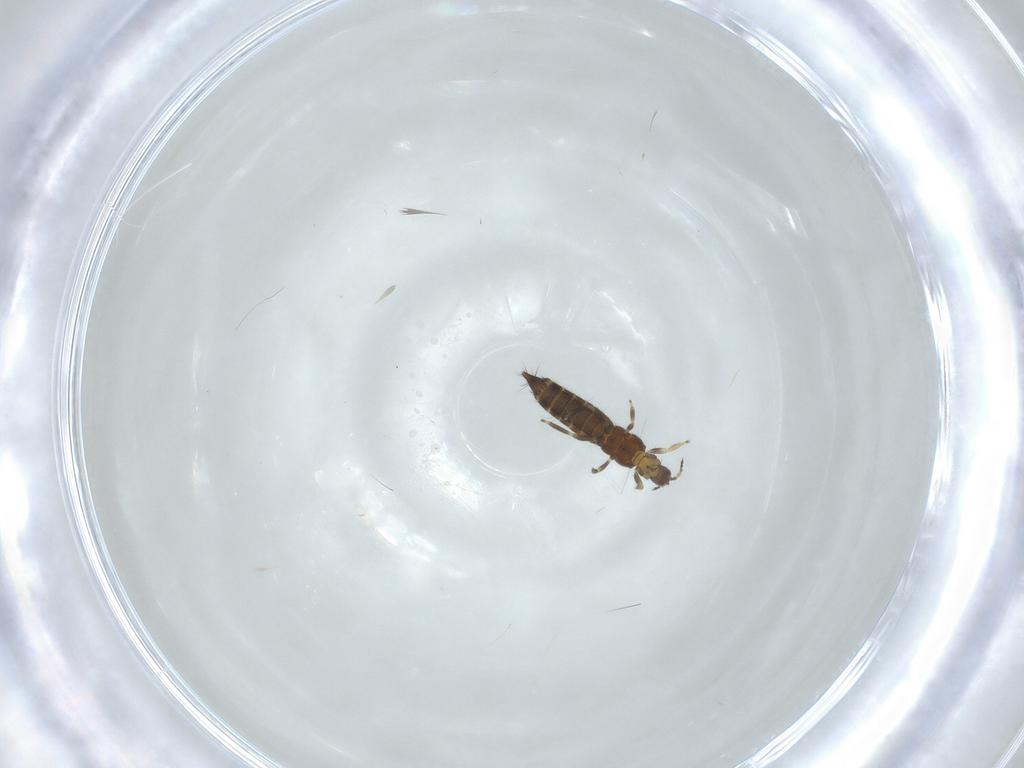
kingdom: Animalia
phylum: Arthropoda
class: Insecta
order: Thysanoptera
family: Thripidae
